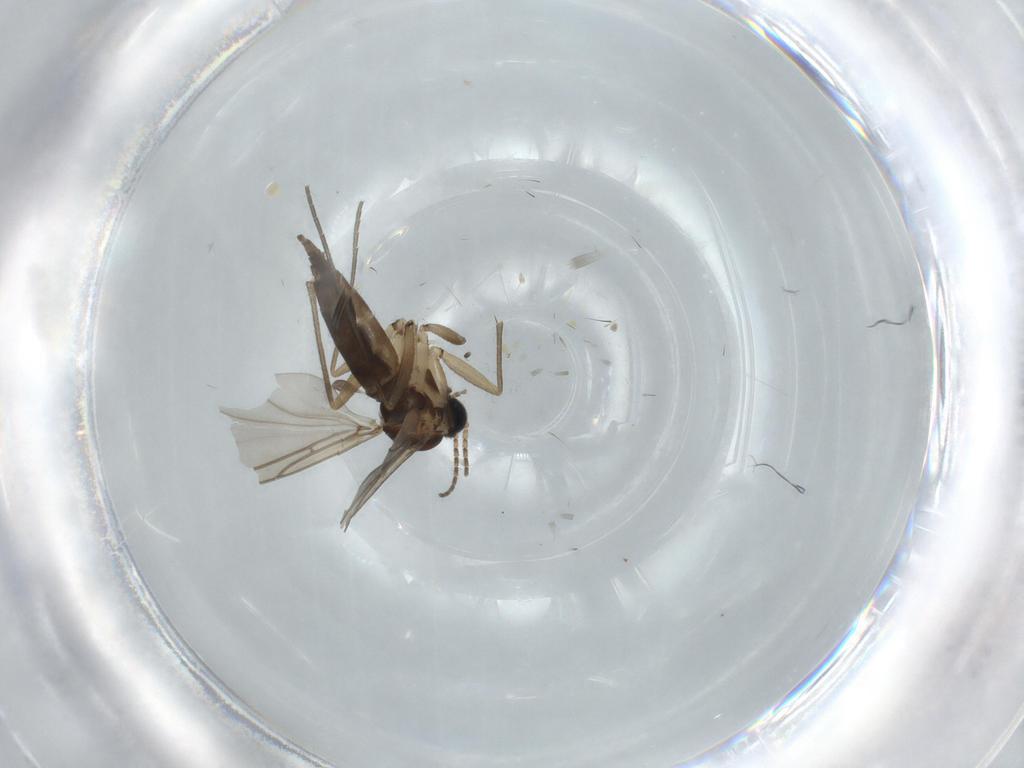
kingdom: Animalia
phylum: Arthropoda
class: Insecta
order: Diptera
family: Sciaridae
